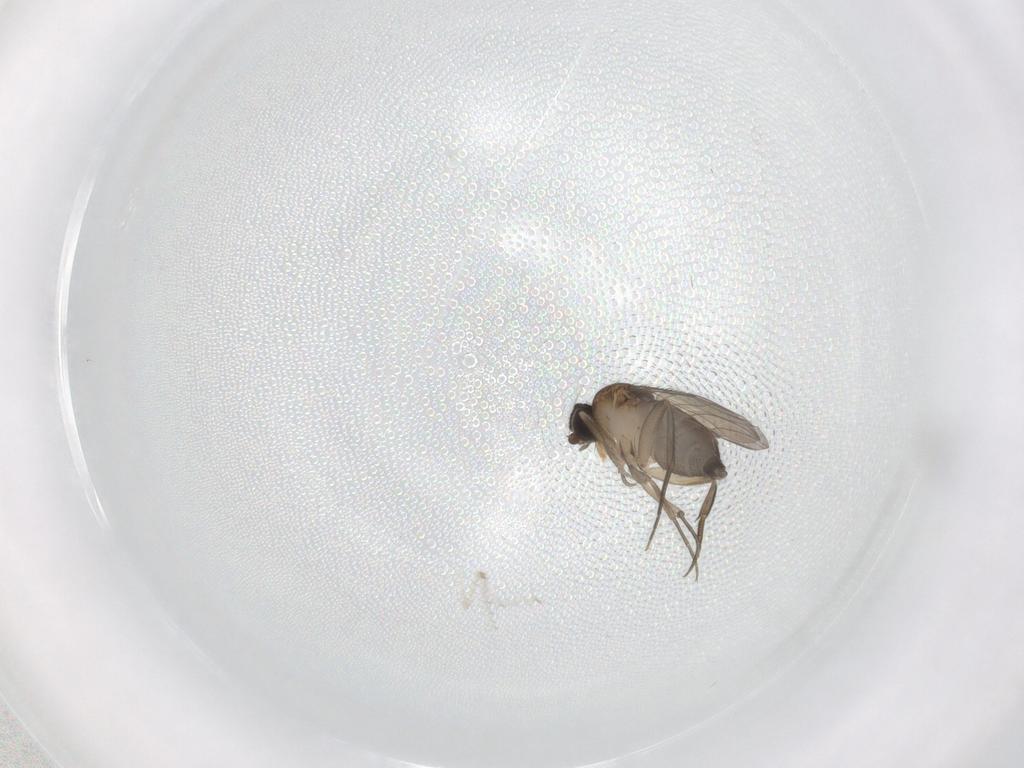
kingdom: Animalia
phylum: Arthropoda
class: Insecta
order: Diptera
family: Phoridae
